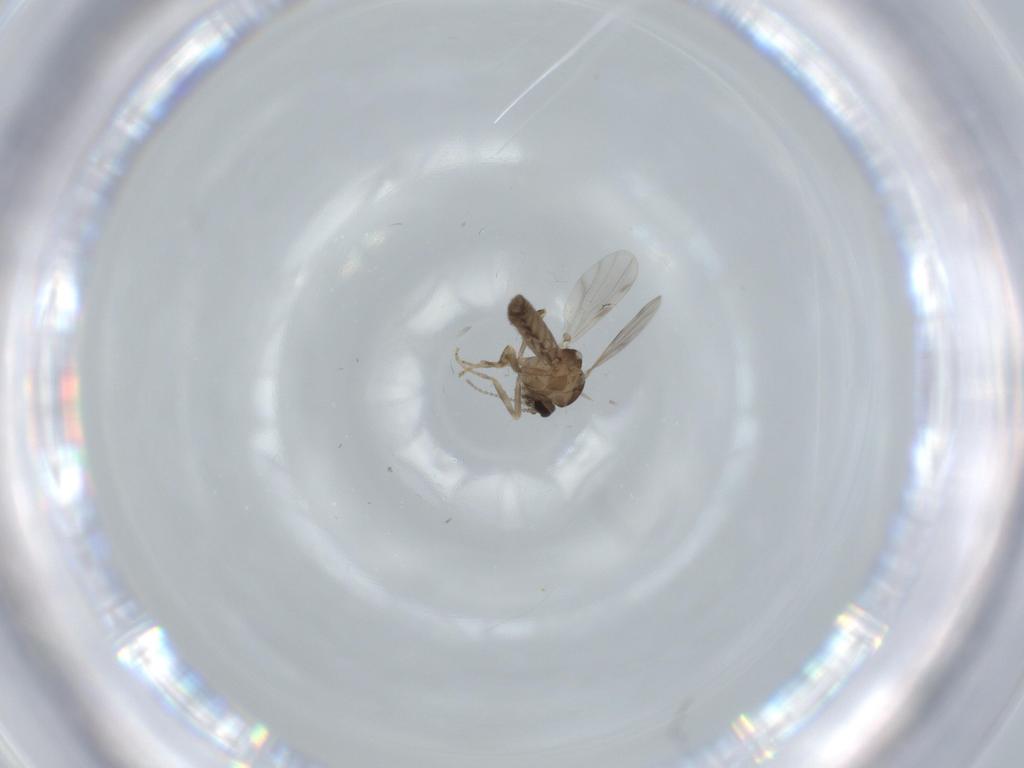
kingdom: Animalia
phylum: Arthropoda
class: Insecta
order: Diptera
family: Ceratopogonidae
